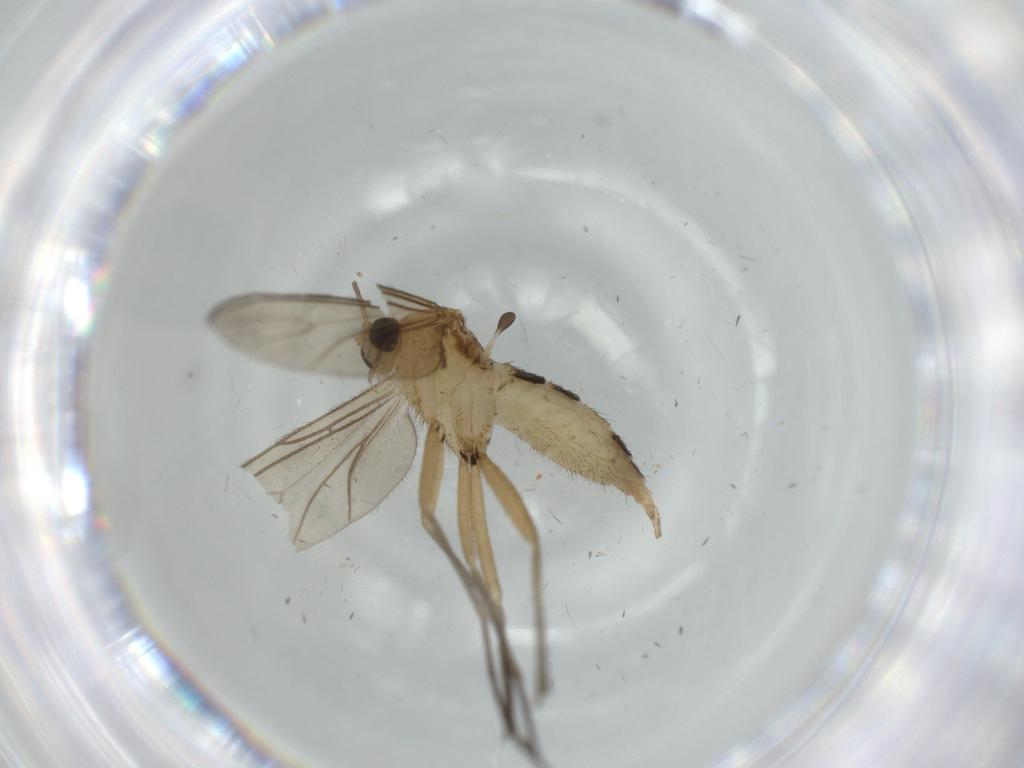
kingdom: Animalia
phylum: Arthropoda
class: Insecta
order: Diptera
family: Sciaridae
